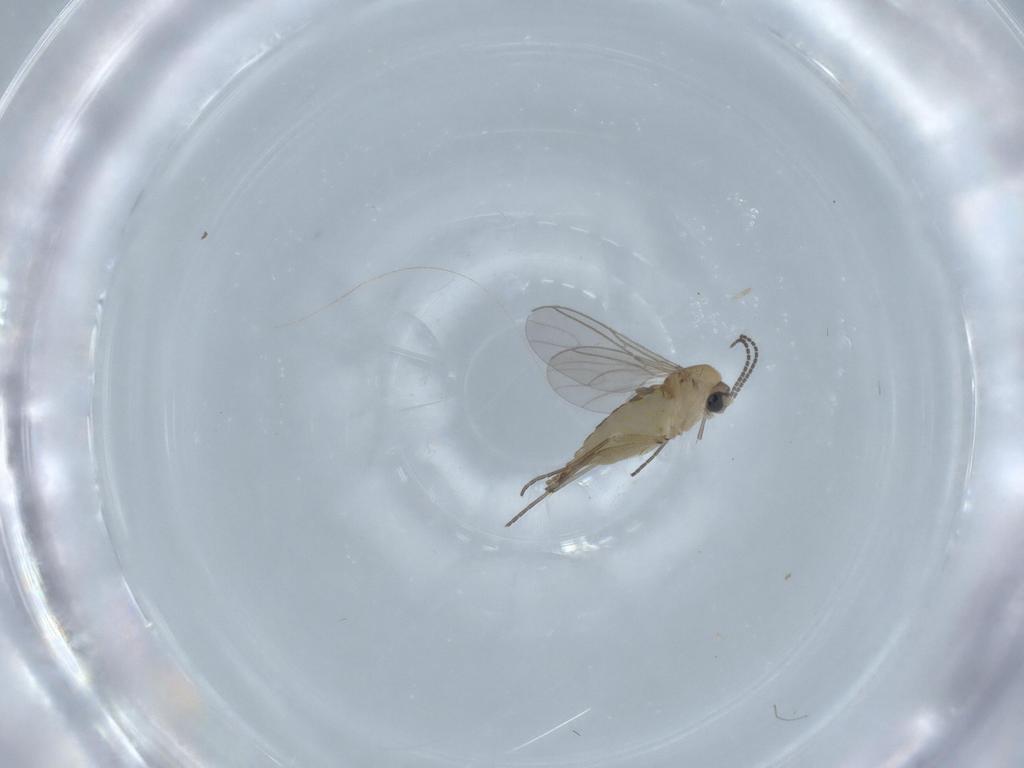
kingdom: Animalia
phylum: Arthropoda
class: Insecta
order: Diptera
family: Sciaridae
